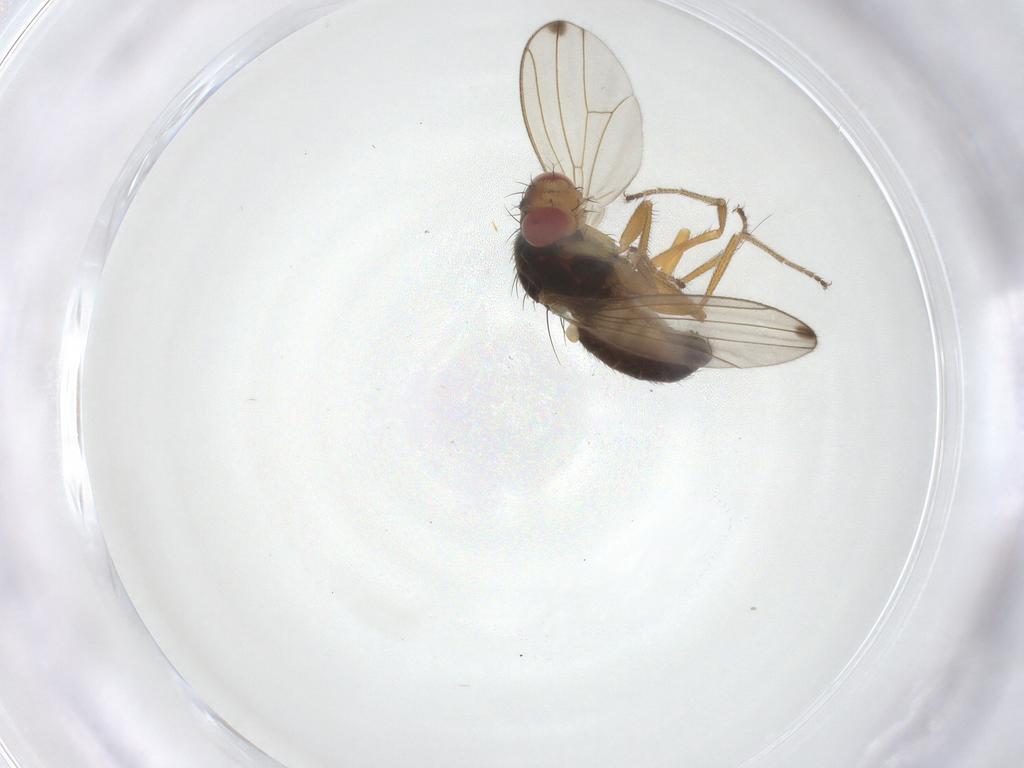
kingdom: Animalia
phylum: Arthropoda
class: Insecta
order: Diptera
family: Drosophilidae
